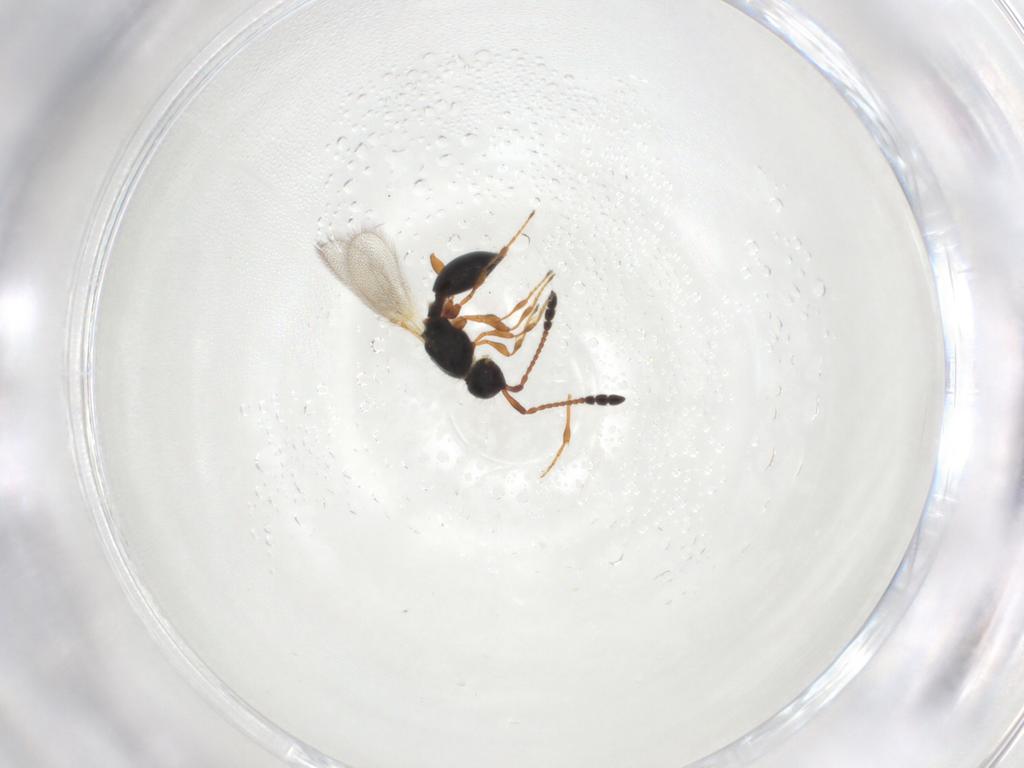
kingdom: Animalia
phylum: Arthropoda
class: Insecta
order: Hymenoptera
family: Diapriidae
